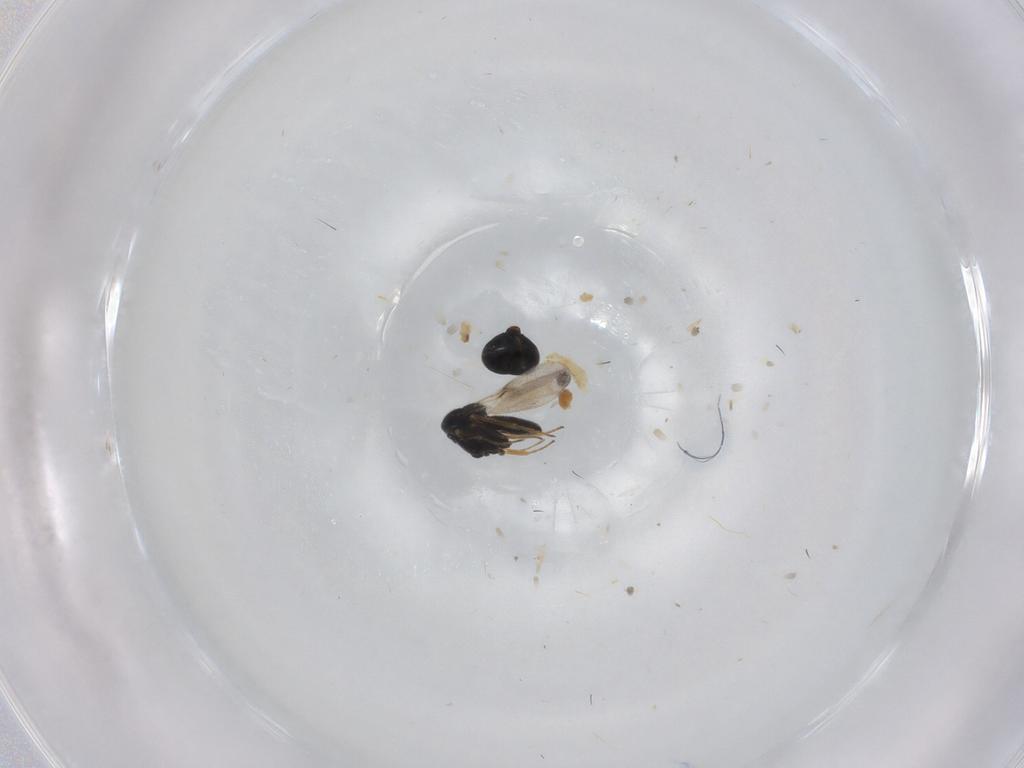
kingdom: Animalia
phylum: Arthropoda
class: Insecta
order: Hymenoptera
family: Scelionidae
